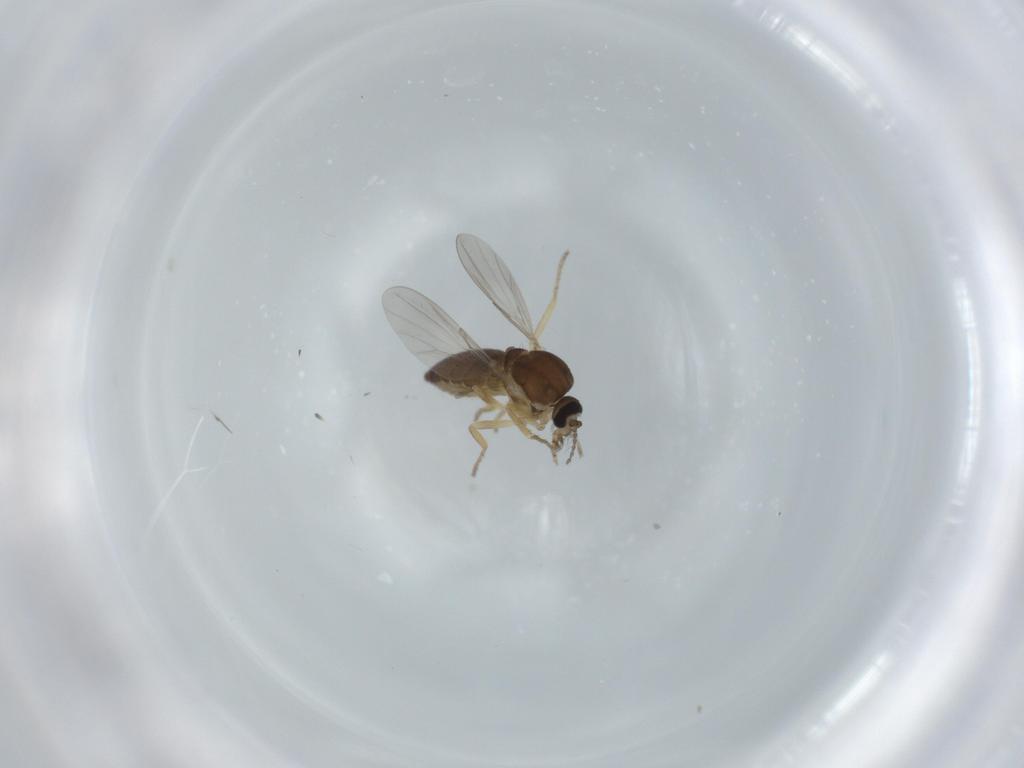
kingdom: Animalia
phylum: Arthropoda
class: Insecta
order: Diptera
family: Ceratopogonidae
